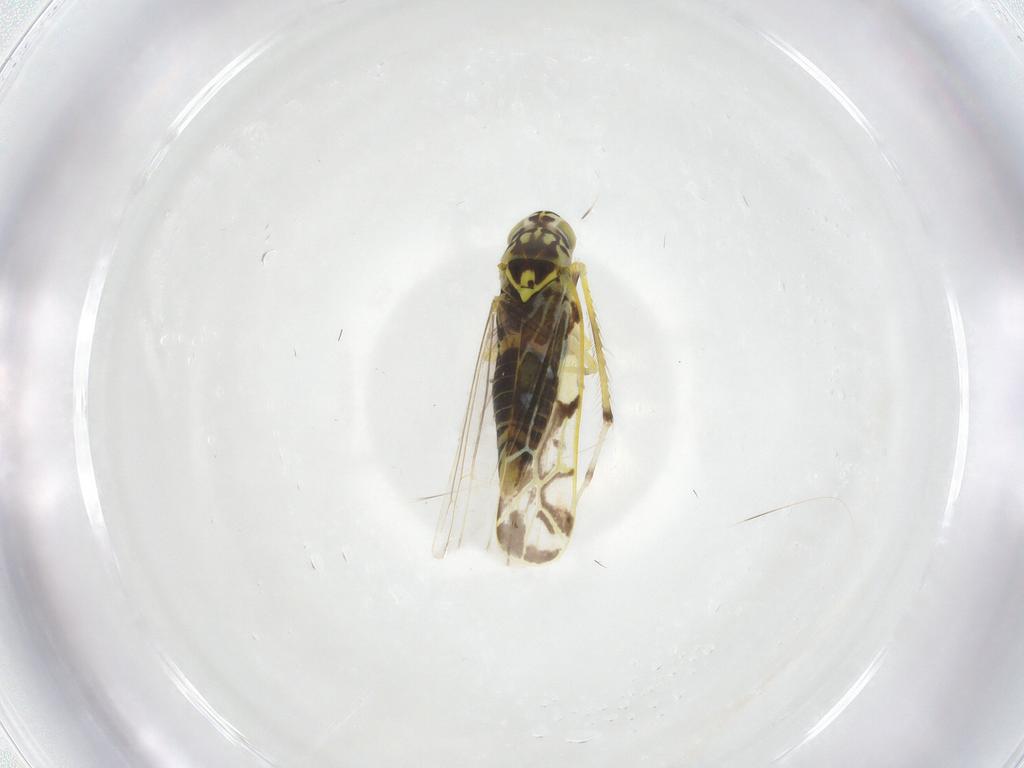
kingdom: Animalia
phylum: Arthropoda
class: Insecta
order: Hemiptera
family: Cicadellidae
